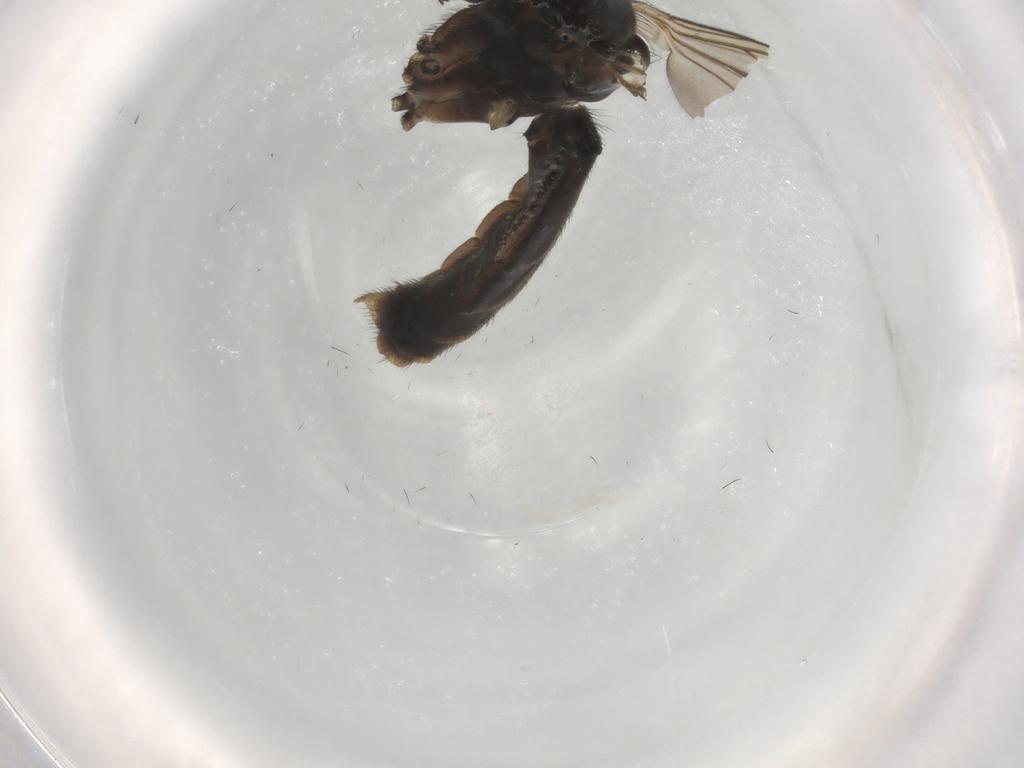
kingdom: Animalia
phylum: Arthropoda
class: Insecta
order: Diptera
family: Keroplatidae
